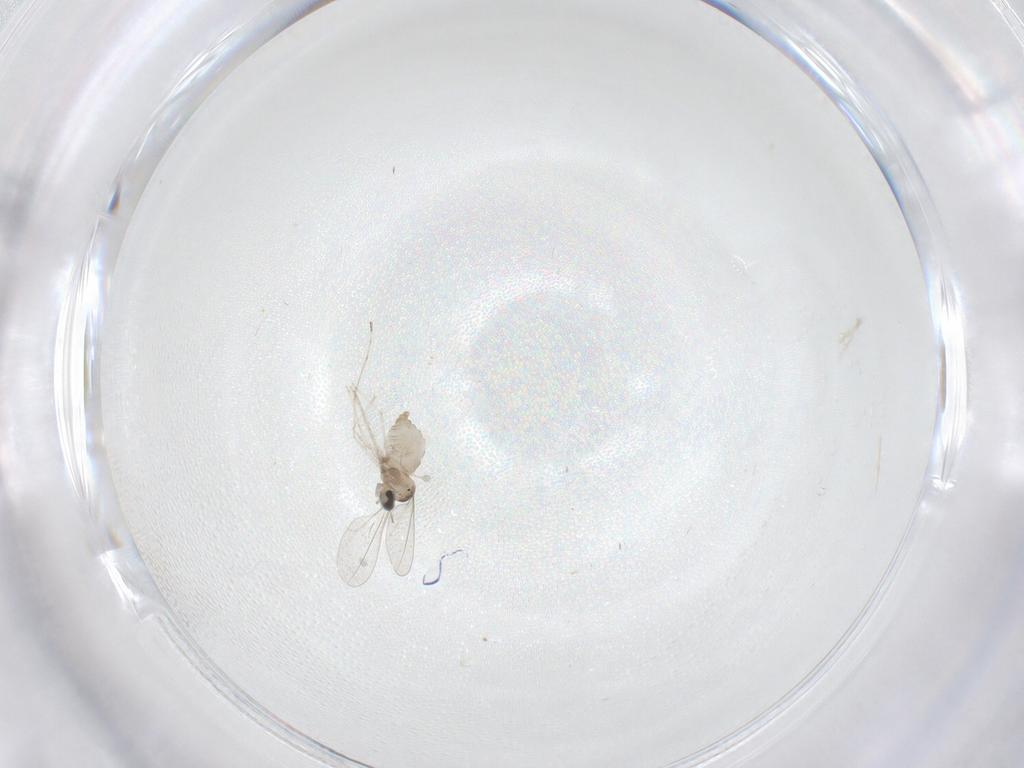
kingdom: Animalia
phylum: Arthropoda
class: Insecta
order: Diptera
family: Cecidomyiidae
